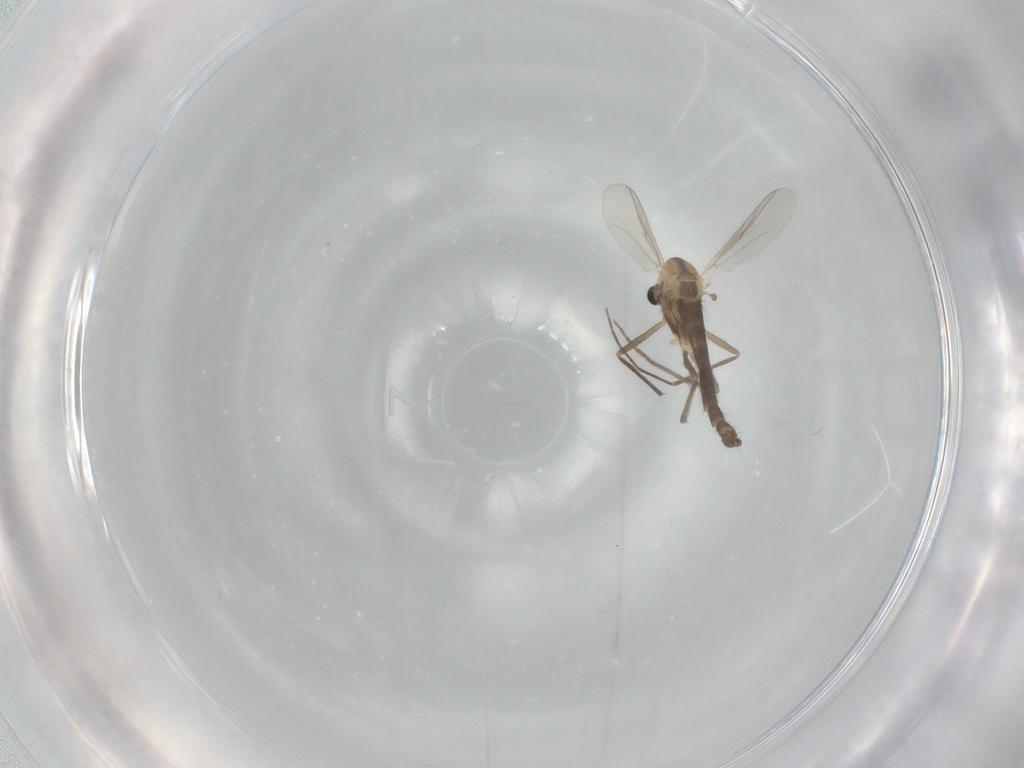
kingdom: Animalia
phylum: Arthropoda
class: Insecta
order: Diptera
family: Chironomidae
